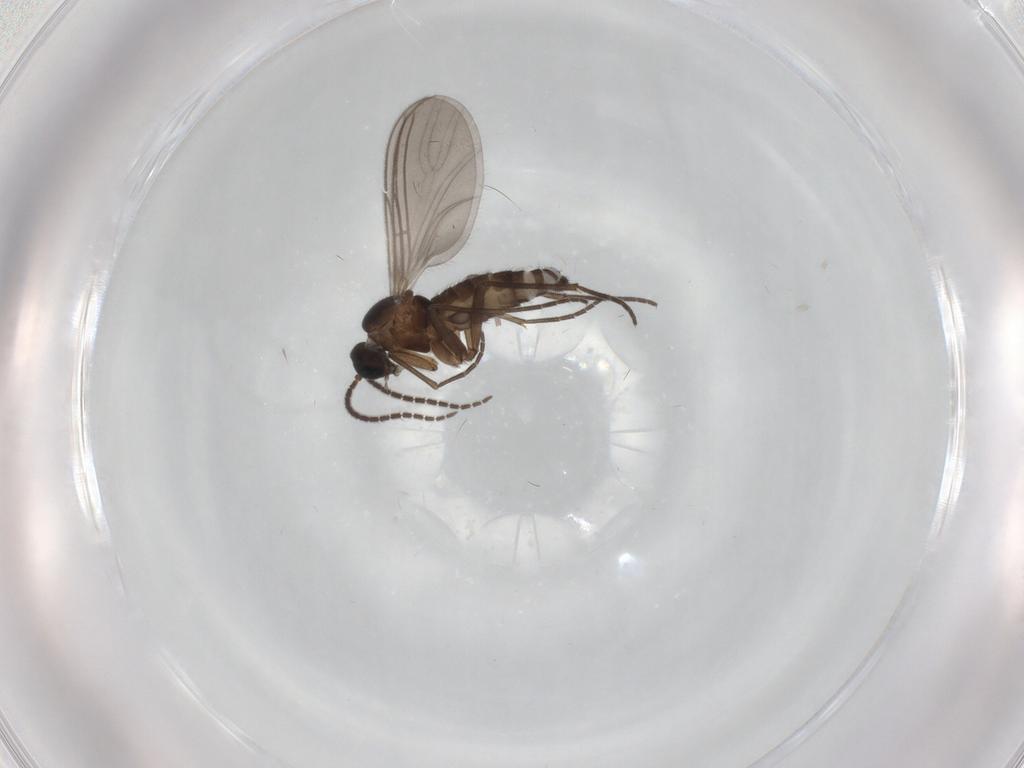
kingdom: Animalia
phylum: Arthropoda
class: Insecta
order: Diptera
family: Sciaridae
